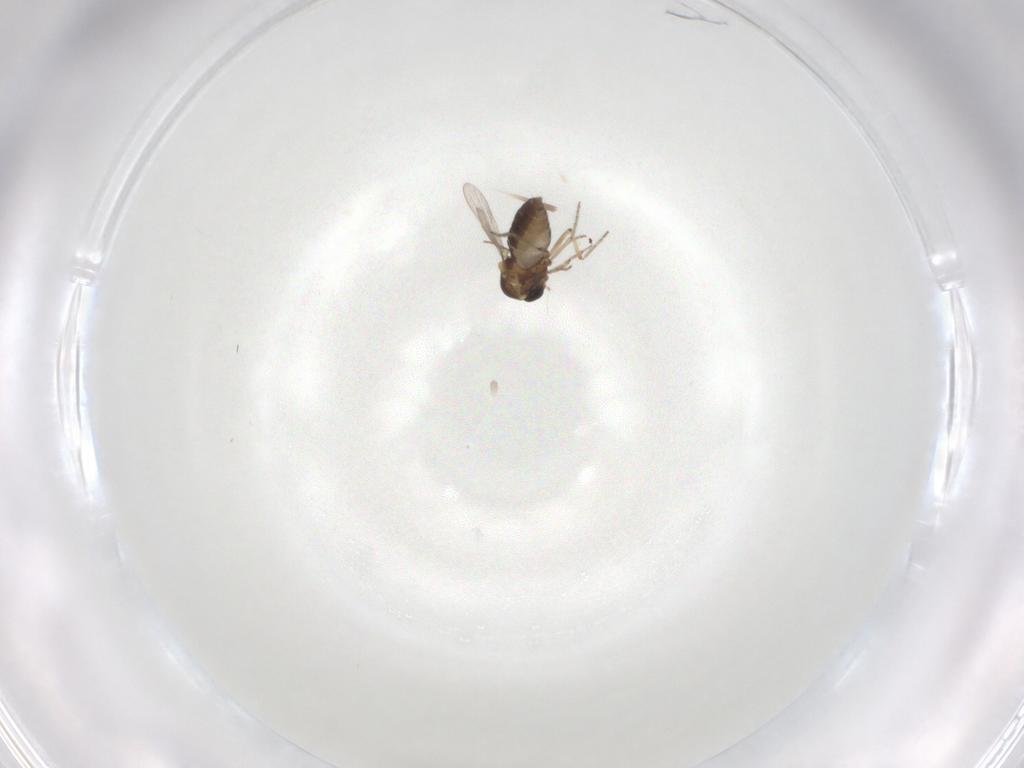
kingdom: Animalia
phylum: Arthropoda
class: Insecta
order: Diptera
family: Ceratopogonidae
